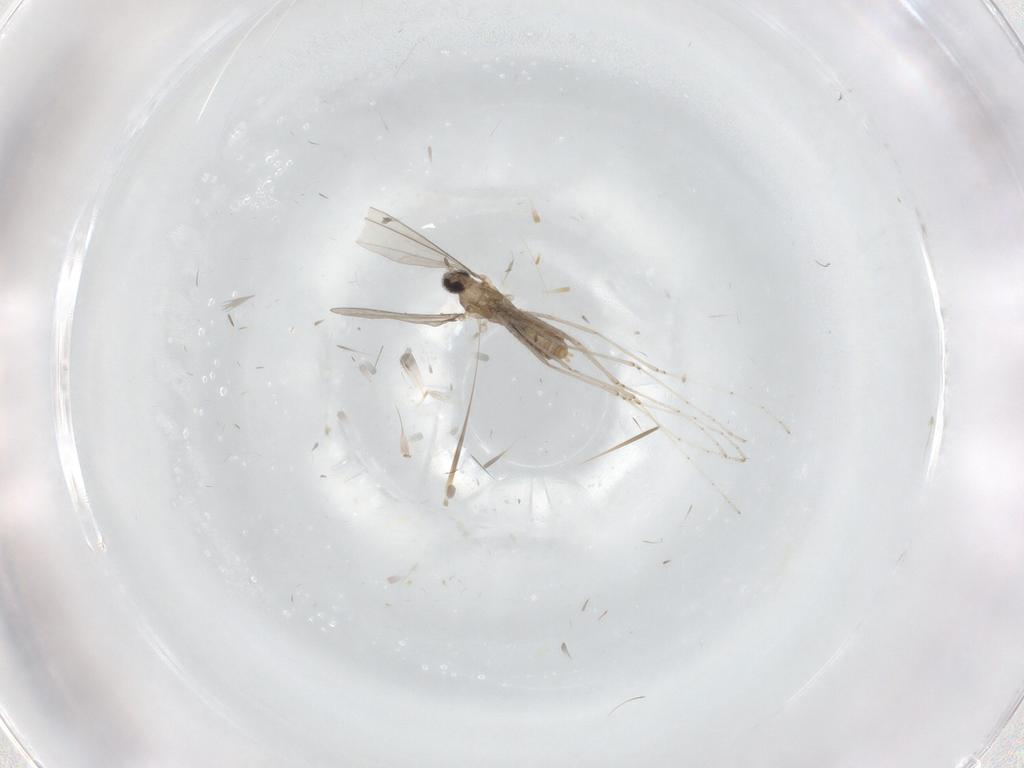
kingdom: Animalia
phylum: Arthropoda
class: Insecta
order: Diptera
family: Cecidomyiidae
